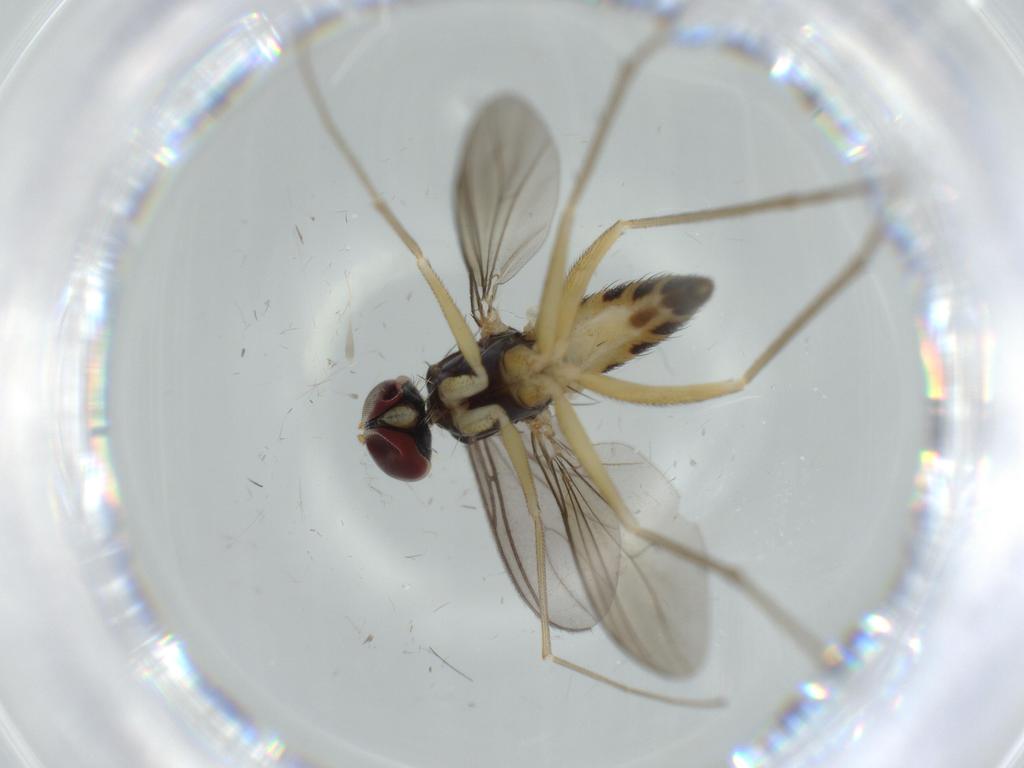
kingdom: Animalia
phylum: Arthropoda
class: Insecta
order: Diptera
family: Dolichopodidae
